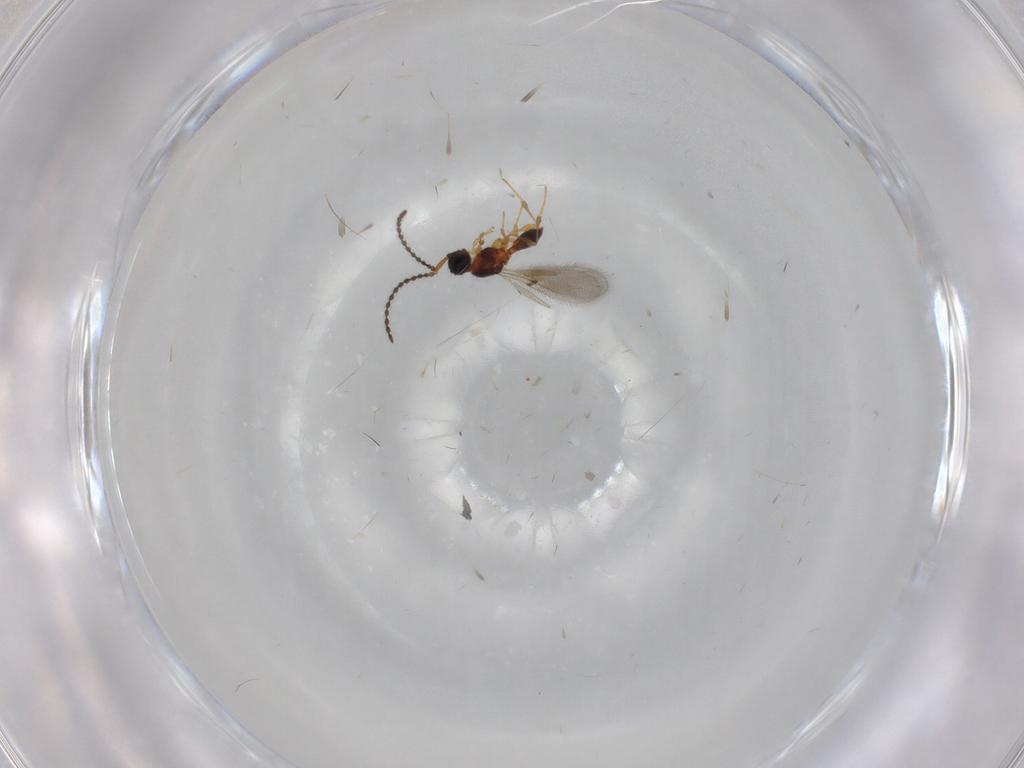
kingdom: Animalia
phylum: Arthropoda
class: Insecta
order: Hymenoptera
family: Diapriidae
